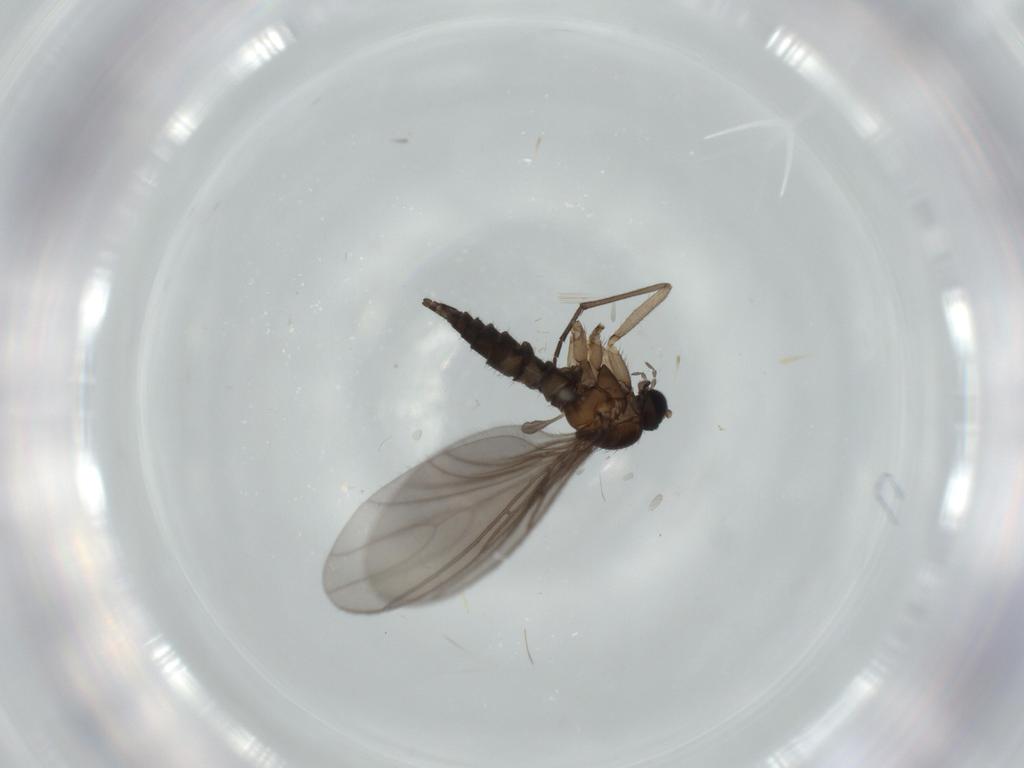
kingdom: Animalia
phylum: Arthropoda
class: Insecta
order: Diptera
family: Sciaridae
